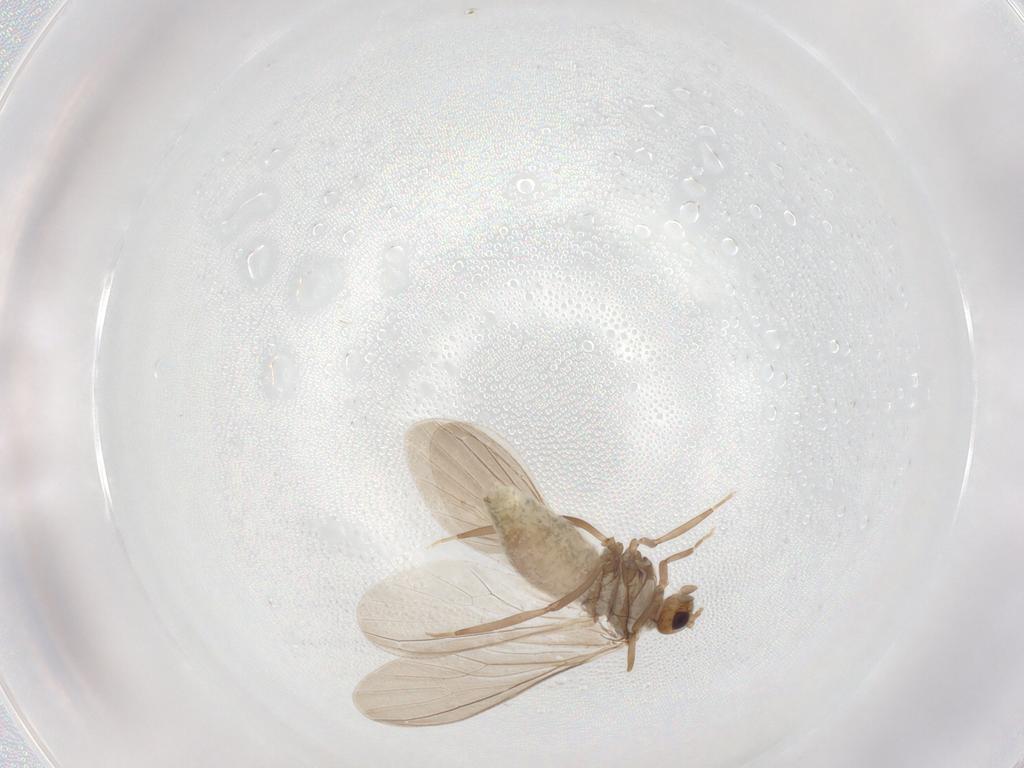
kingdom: Animalia
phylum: Arthropoda
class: Insecta
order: Neuroptera
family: Coniopterygidae
